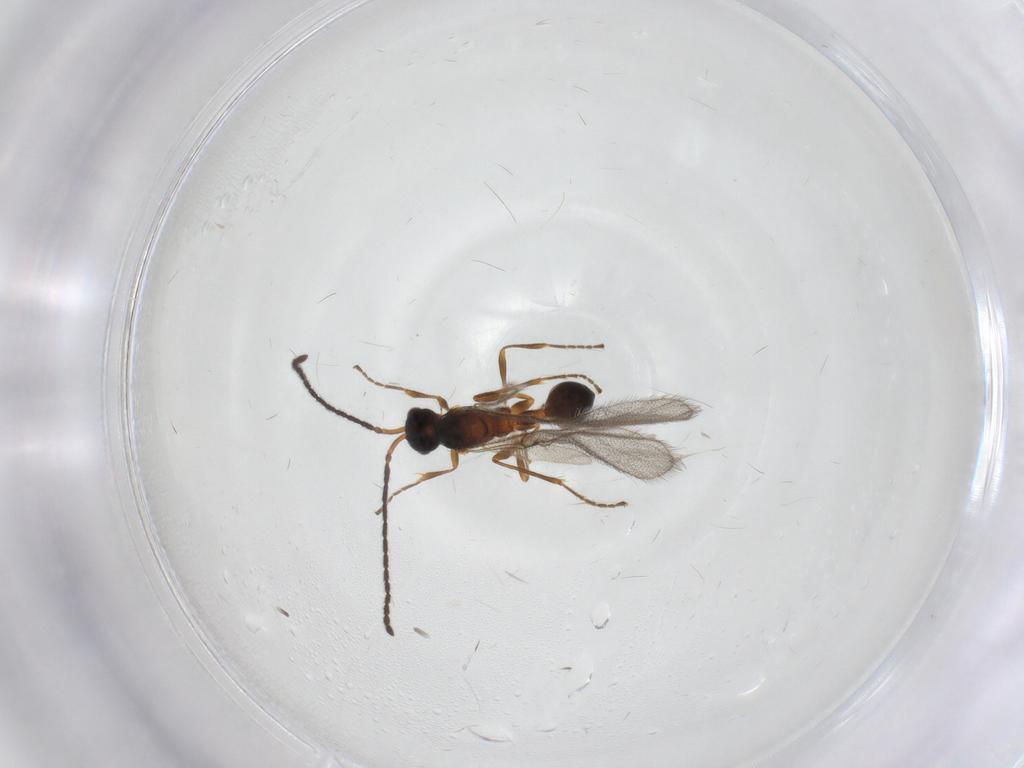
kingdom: Animalia
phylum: Arthropoda
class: Insecta
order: Hymenoptera
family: Diapriidae
